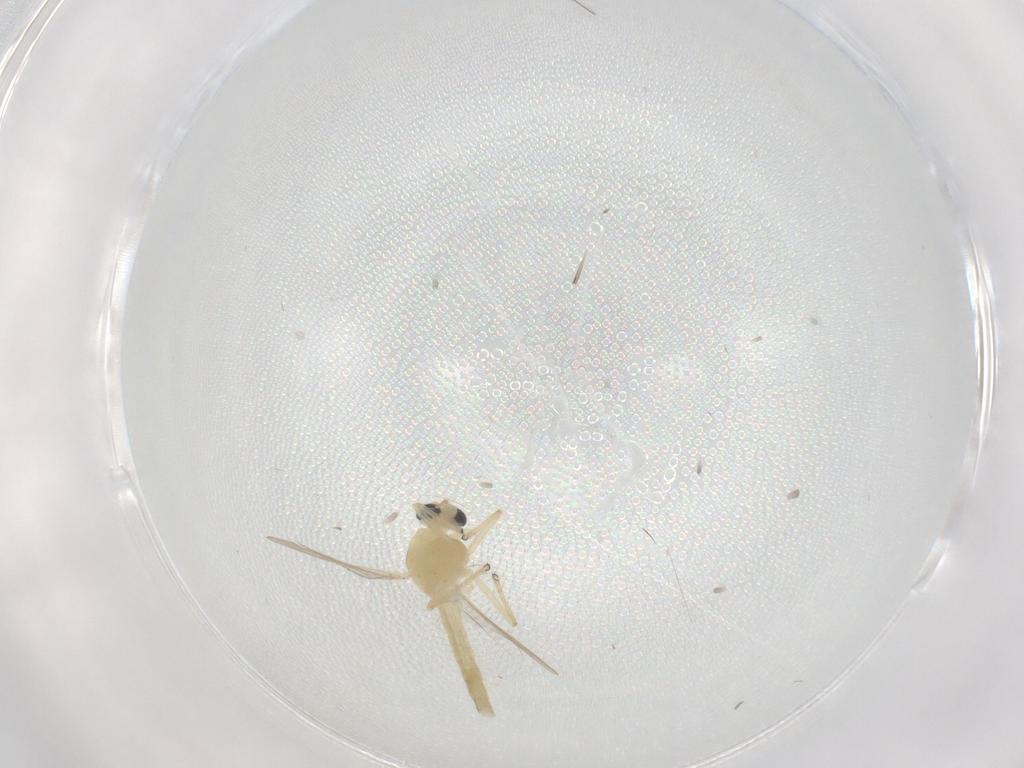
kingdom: Animalia
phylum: Arthropoda
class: Insecta
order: Diptera
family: Chironomidae
